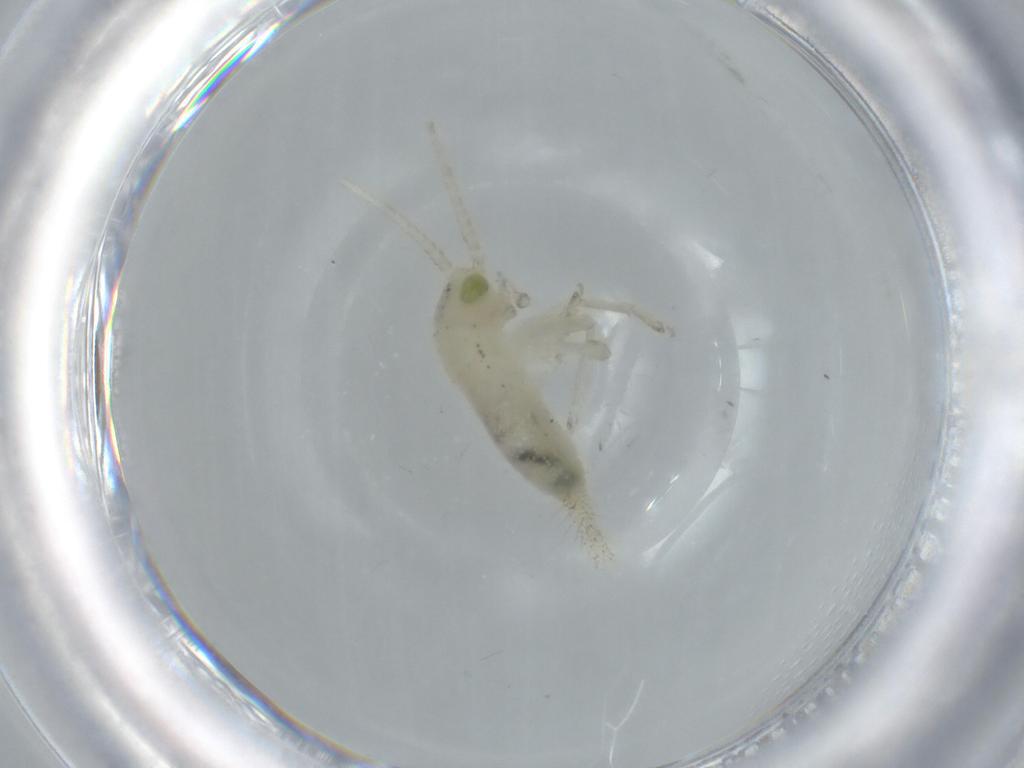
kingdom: Animalia
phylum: Arthropoda
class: Insecta
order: Orthoptera
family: Trigonidiidae
